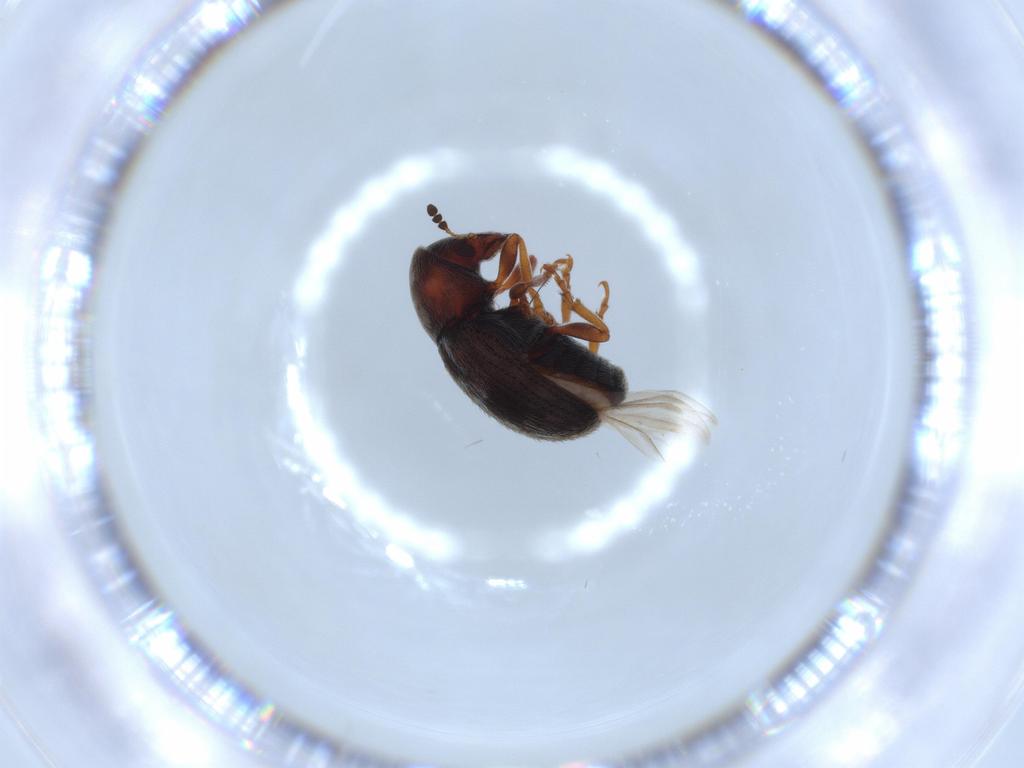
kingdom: Animalia
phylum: Arthropoda
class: Insecta
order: Coleoptera
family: Anthribidae
